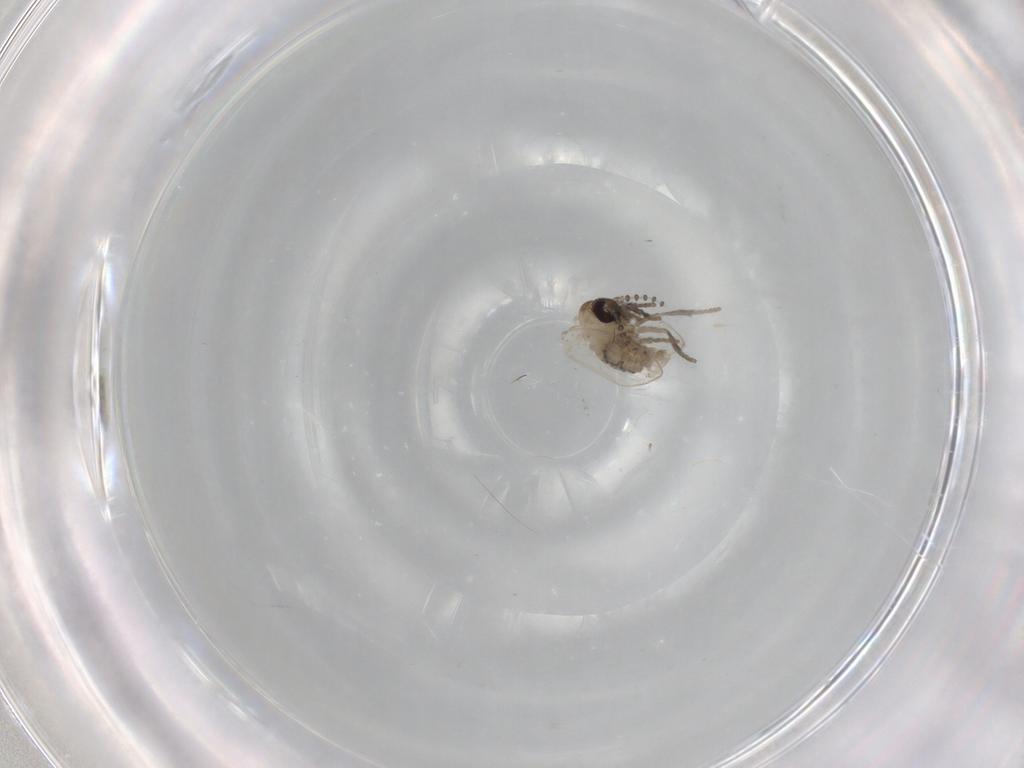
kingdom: Animalia
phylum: Arthropoda
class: Insecta
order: Diptera
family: Psychodidae
